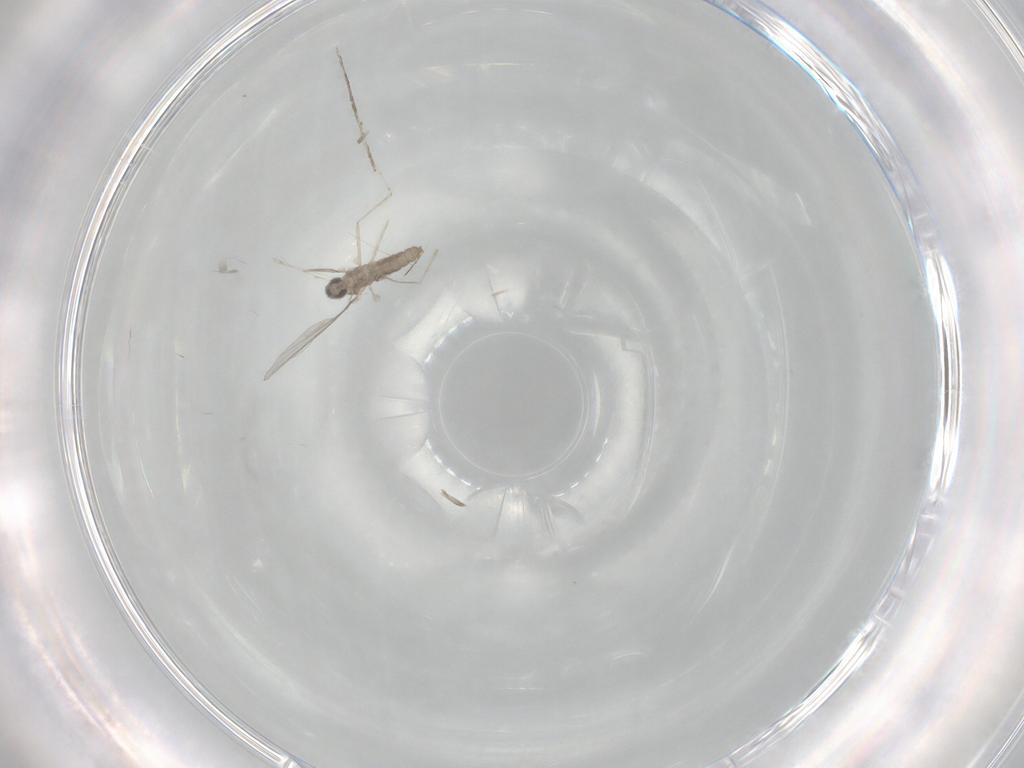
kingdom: Animalia
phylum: Arthropoda
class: Insecta
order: Diptera
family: Cecidomyiidae
